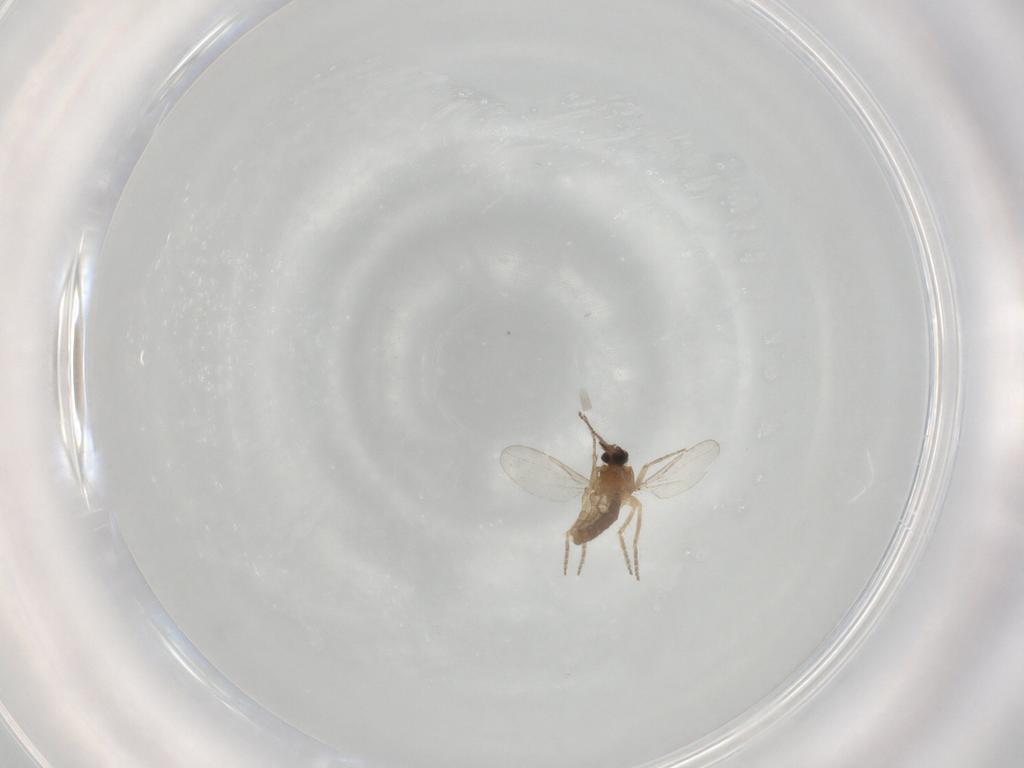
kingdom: Animalia
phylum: Arthropoda
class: Insecta
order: Diptera
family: Ceratopogonidae
